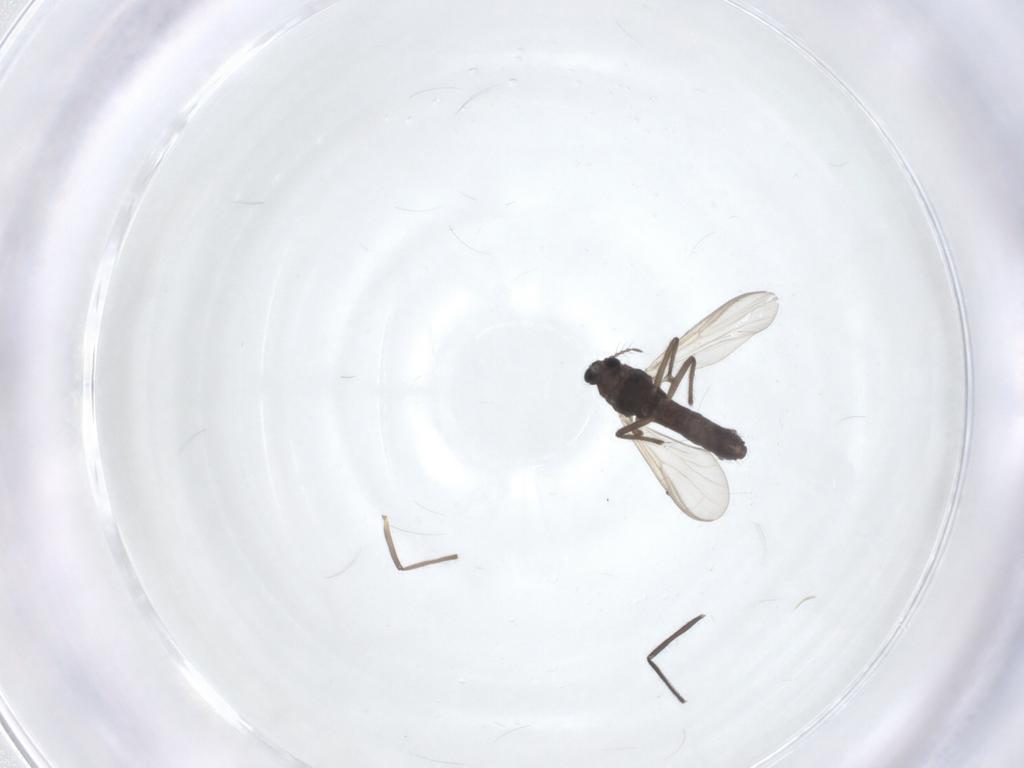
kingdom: Animalia
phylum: Arthropoda
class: Insecta
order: Diptera
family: Chironomidae
